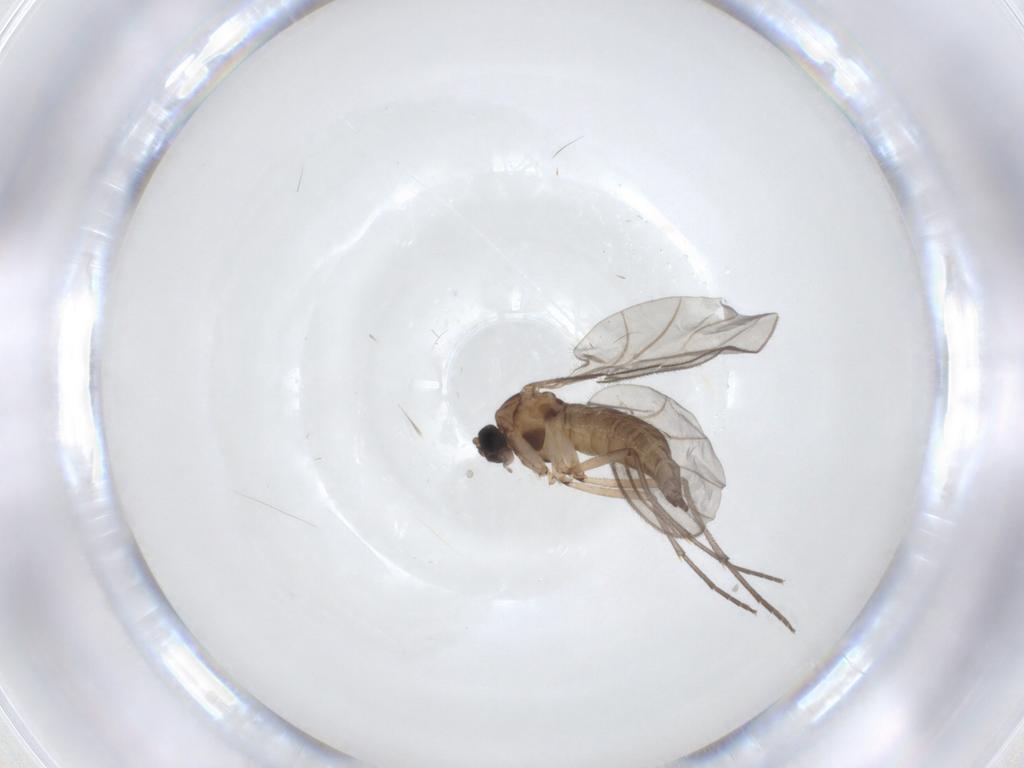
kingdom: Animalia
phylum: Arthropoda
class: Insecta
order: Diptera
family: Sciaridae
